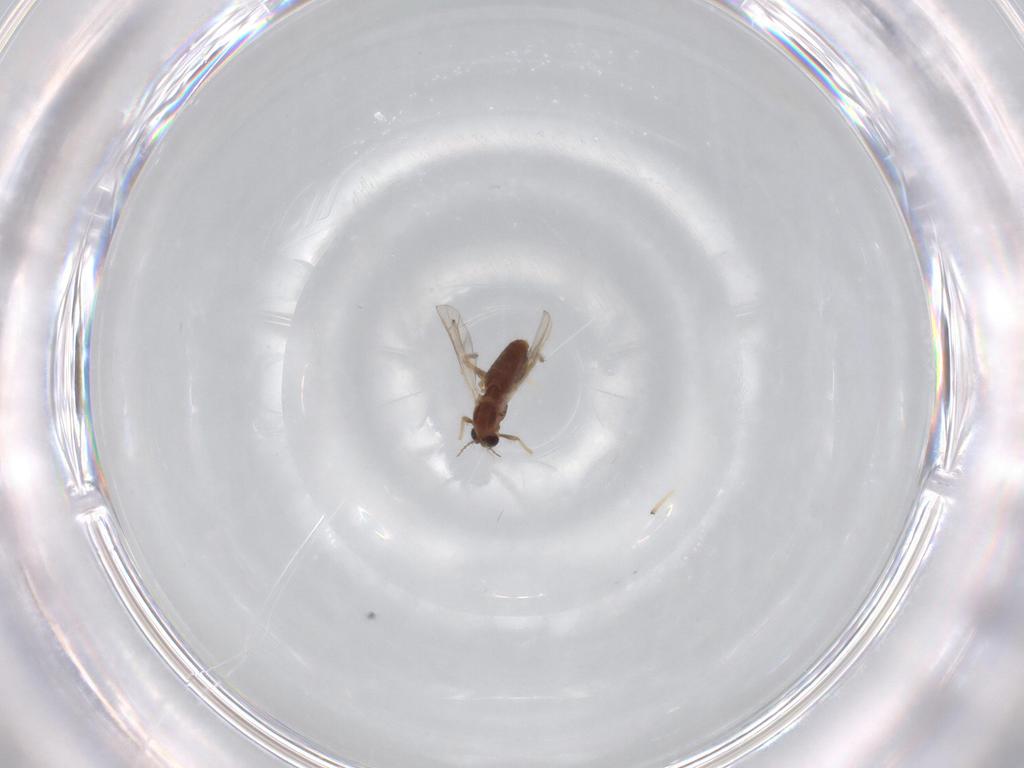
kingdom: Animalia
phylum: Arthropoda
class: Insecta
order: Diptera
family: Chironomidae
